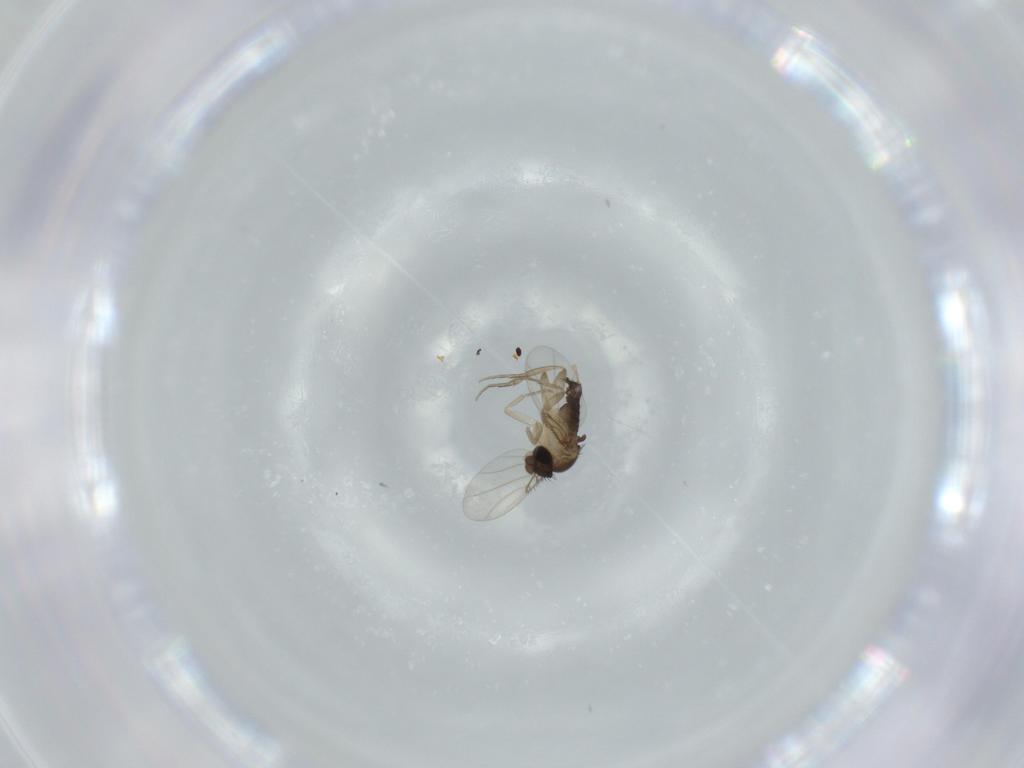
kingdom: Animalia
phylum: Arthropoda
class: Insecta
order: Diptera
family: Phoridae
